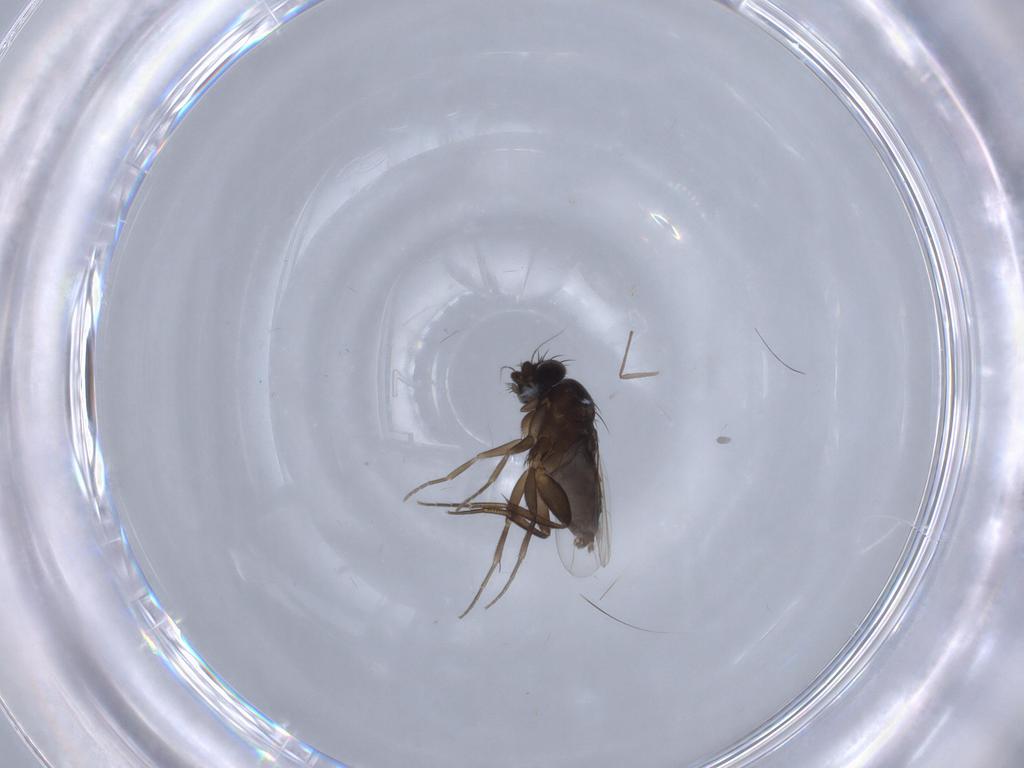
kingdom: Animalia
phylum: Arthropoda
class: Insecta
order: Diptera
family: Phoridae
